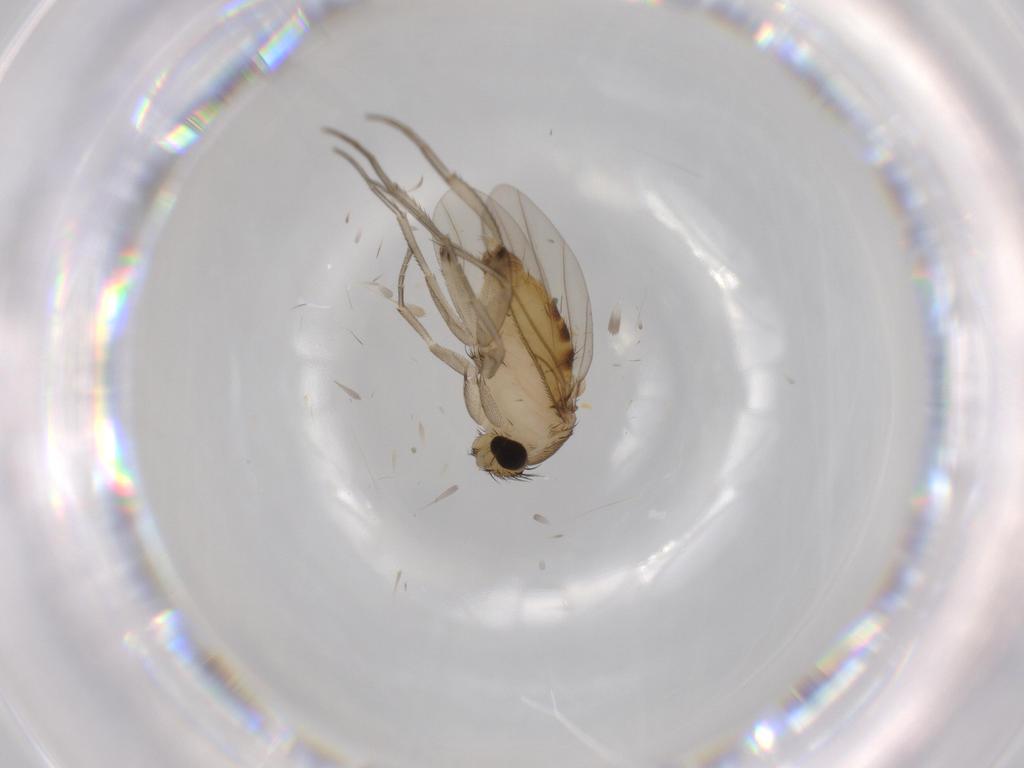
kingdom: Animalia
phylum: Arthropoda
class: Insecta
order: Diptera
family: Phoridae
